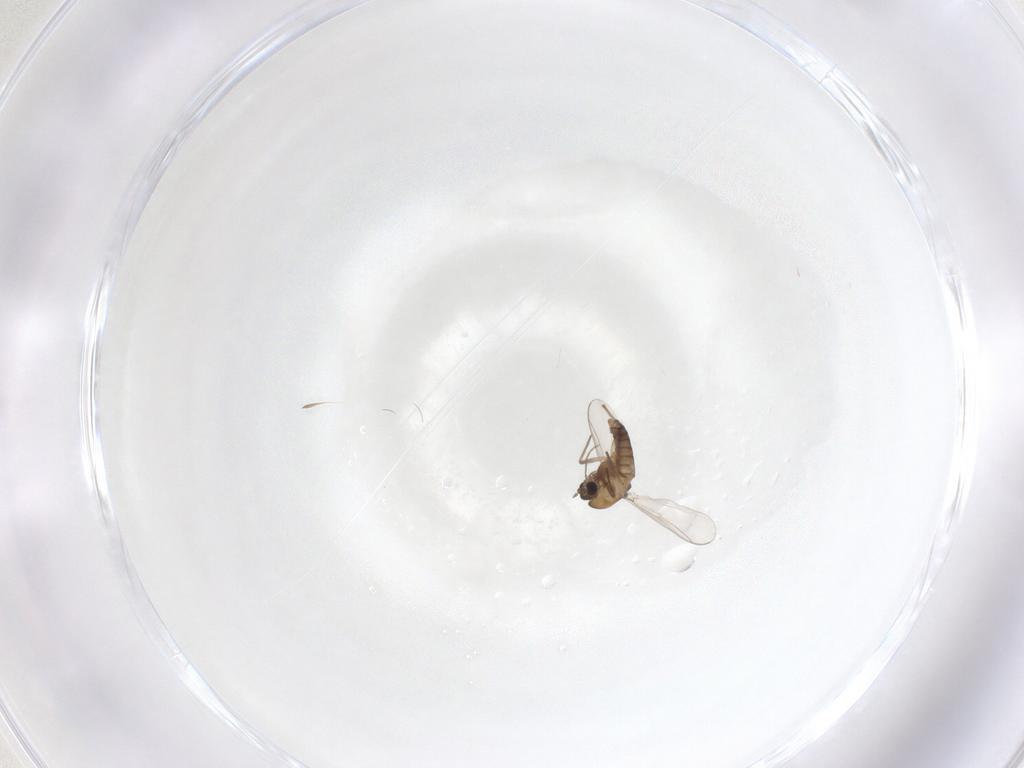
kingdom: Animalia
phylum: Arthropoda
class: Insecta
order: Diptera
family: Chironomidae
